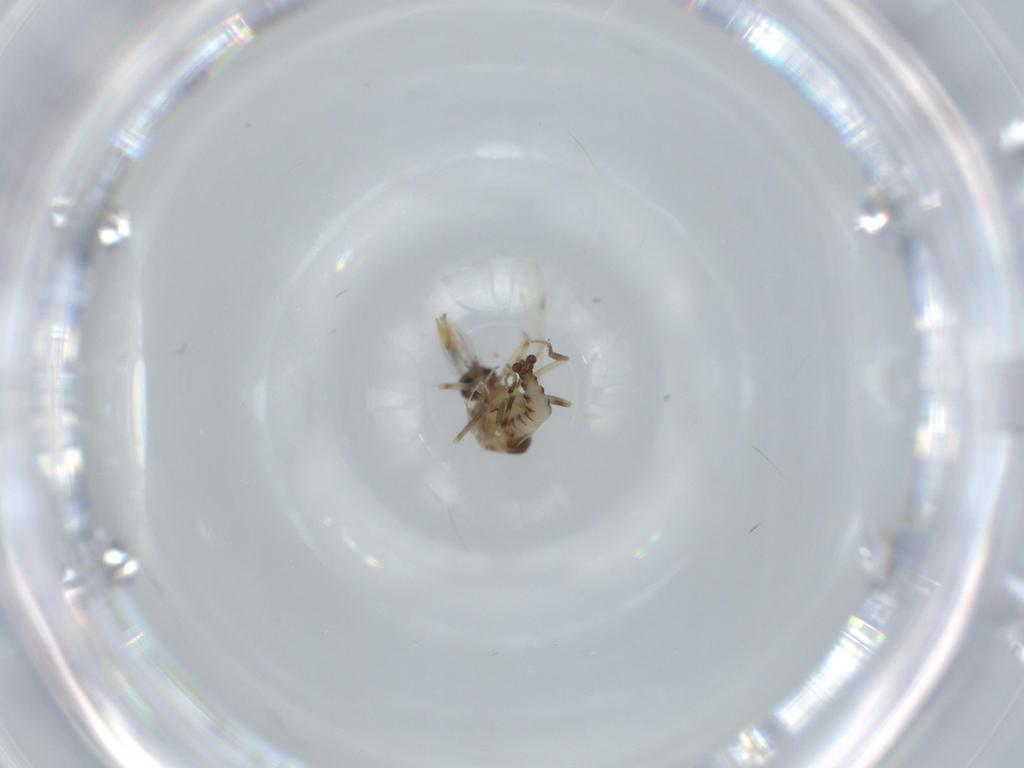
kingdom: Animalia
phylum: Arthropoda
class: Insecta
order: Diptera
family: Ceratopogonidae
